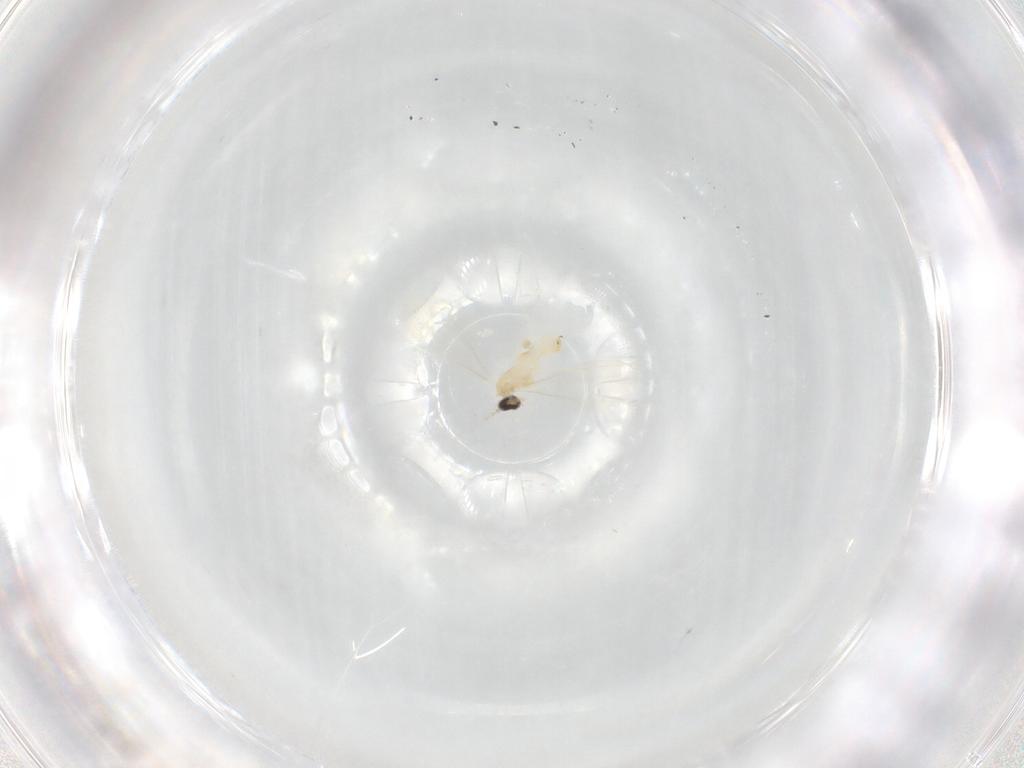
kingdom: Animalia
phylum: Arthropoda
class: Insecta
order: Diptera
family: Cecidomyiidae
